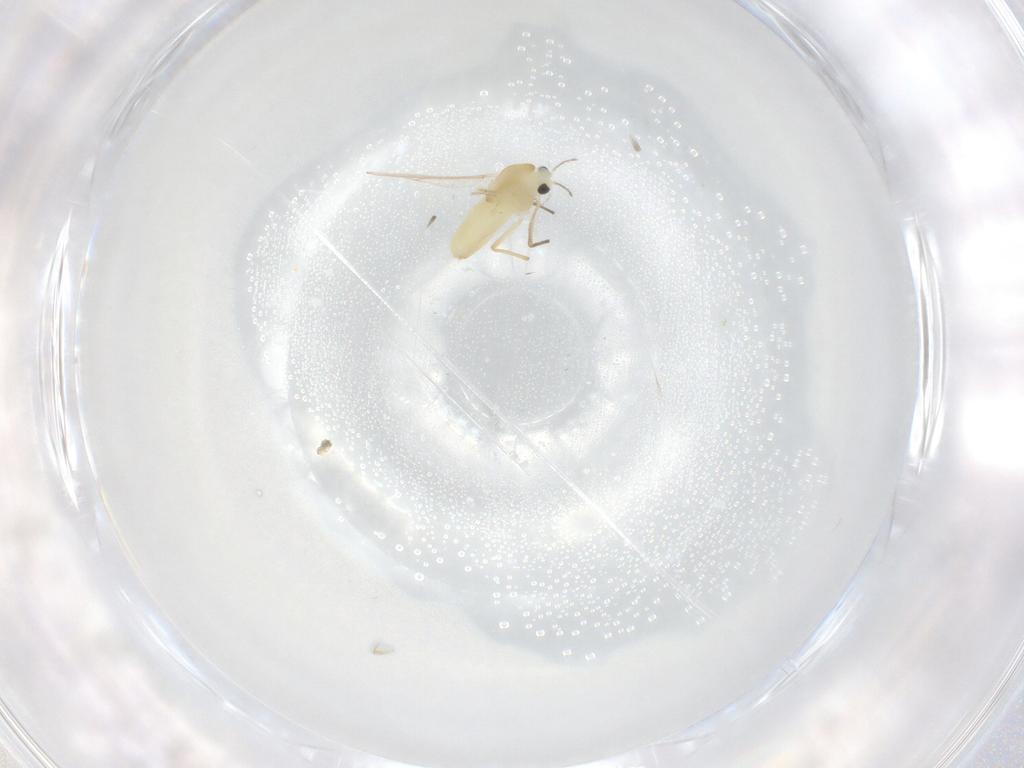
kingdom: Animalia
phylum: Arthropoda
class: Insecta
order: Diptera
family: Chironomidae
